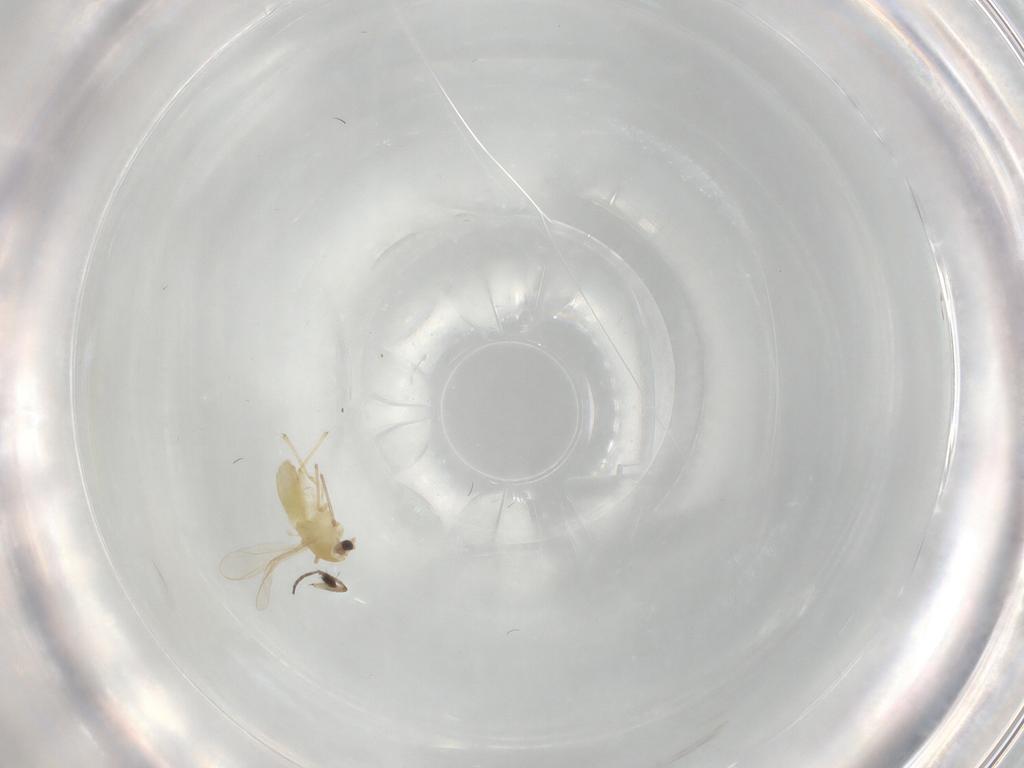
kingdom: Animalia
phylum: Arthropoda
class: Insecta
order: Diptera
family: Chironomidae
